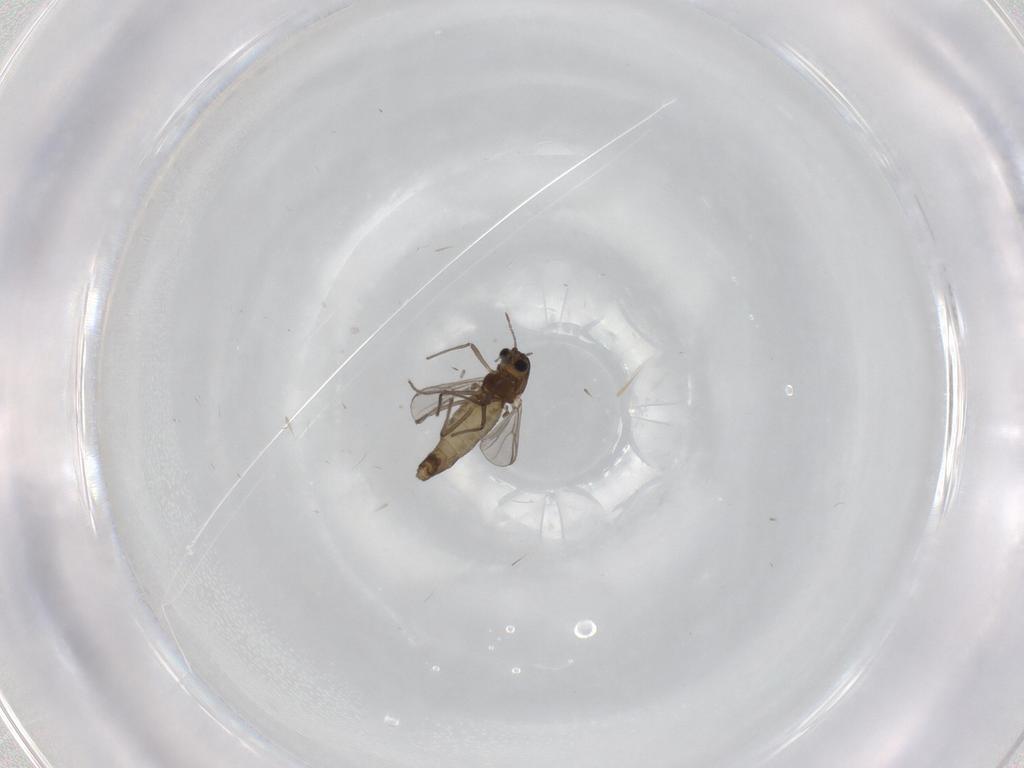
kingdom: Animalia
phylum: Arthropoda
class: Insecta
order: Diptera
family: Chironomidae
